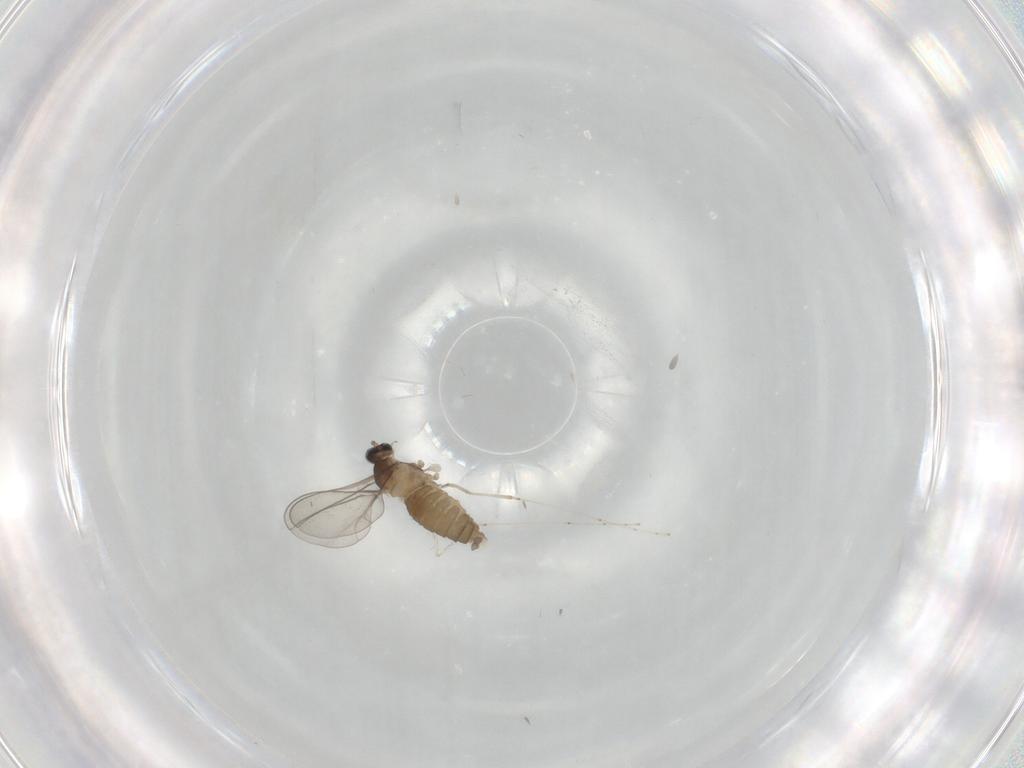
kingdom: Animalia
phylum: Arthropoda
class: Insecta
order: Diptera
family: Cecidomyiidae
